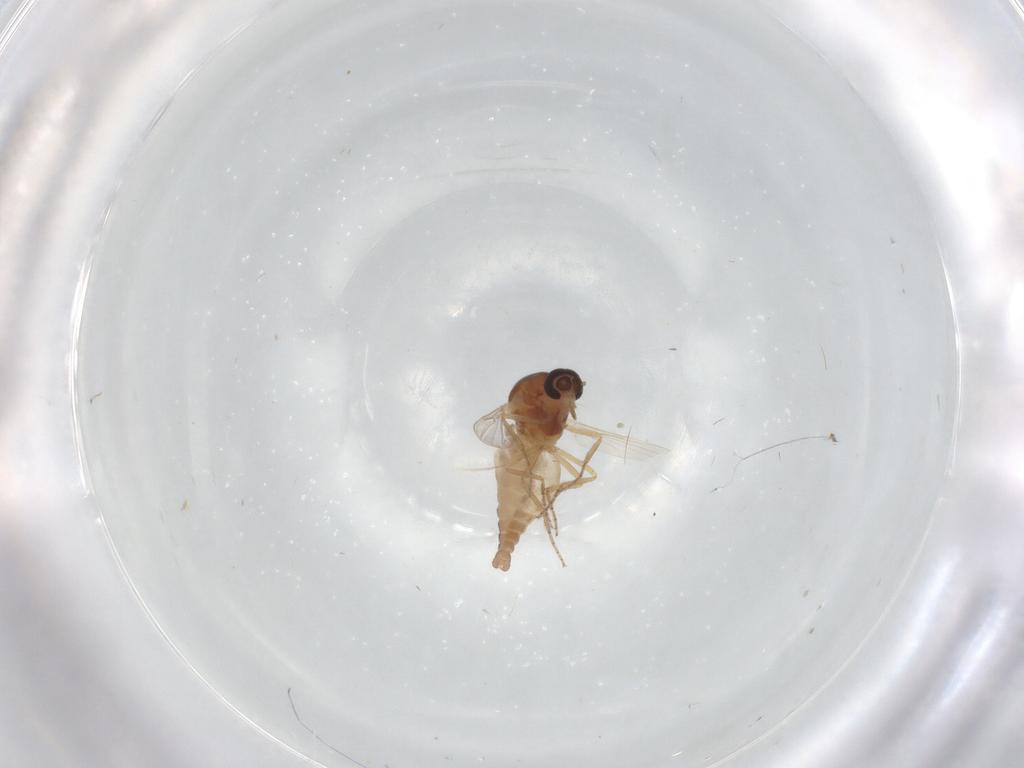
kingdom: Animalia
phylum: Arthropoda
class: Insecta
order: Diptera
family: Ceratopogonidae
